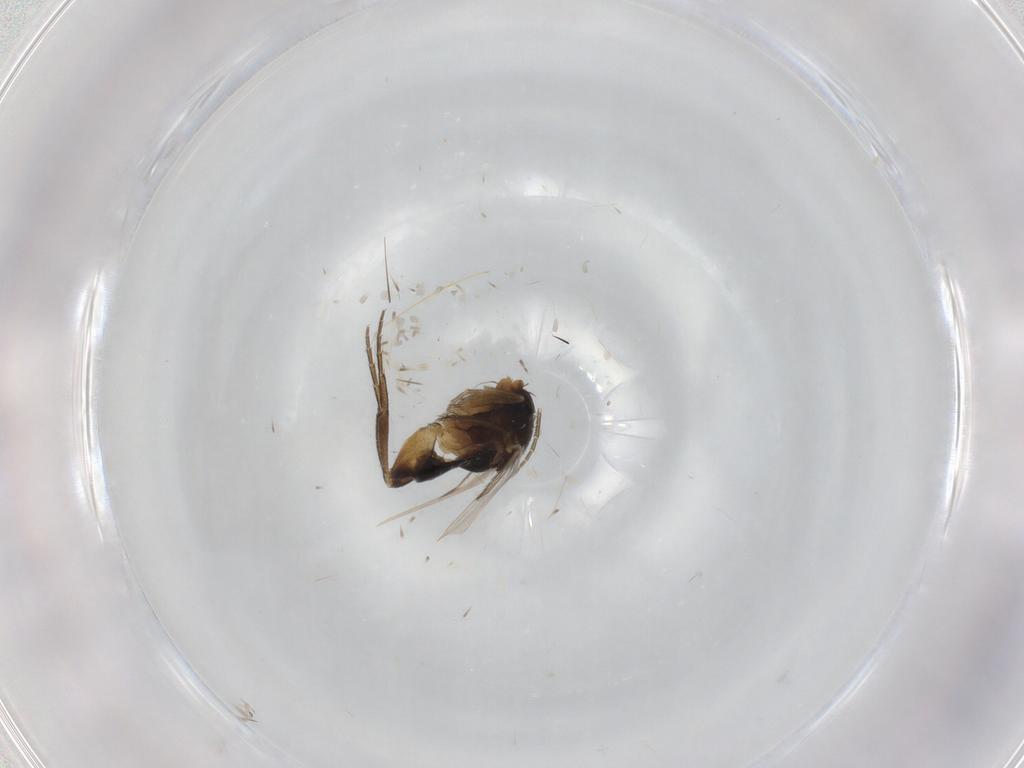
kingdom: Animalia
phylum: Arthropoda
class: Insecta
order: Diptera
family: Phoridae
